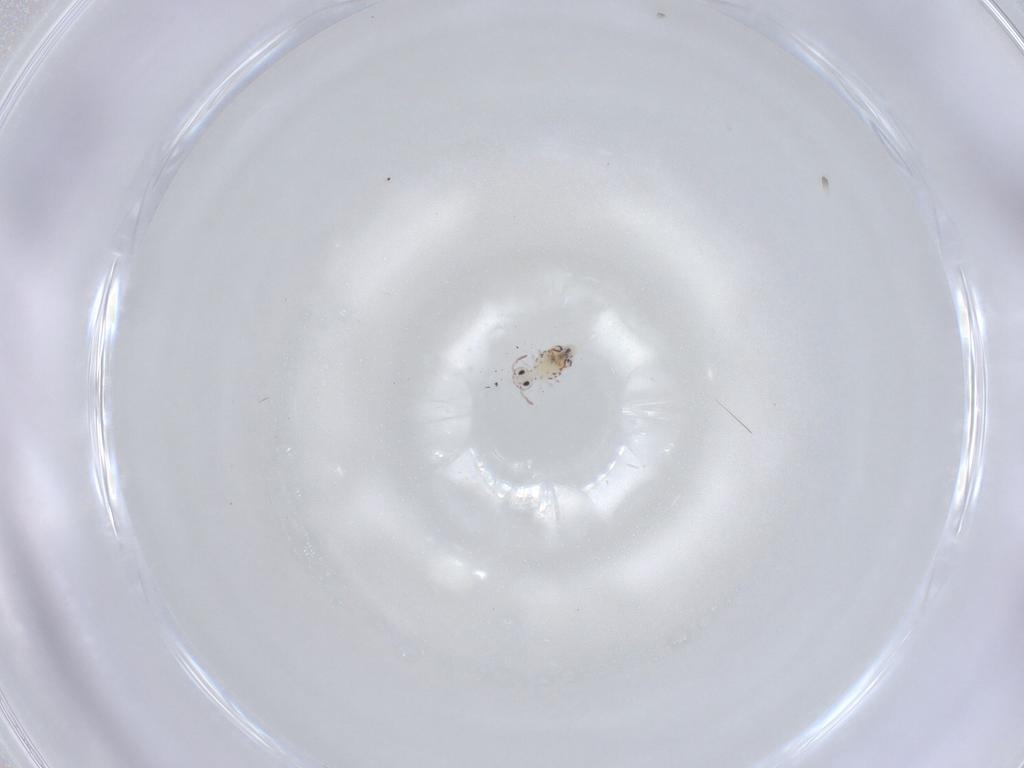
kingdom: Animalia
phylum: Arthropoda
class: Collembola
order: Symphypleona
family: Bourletiellidae
